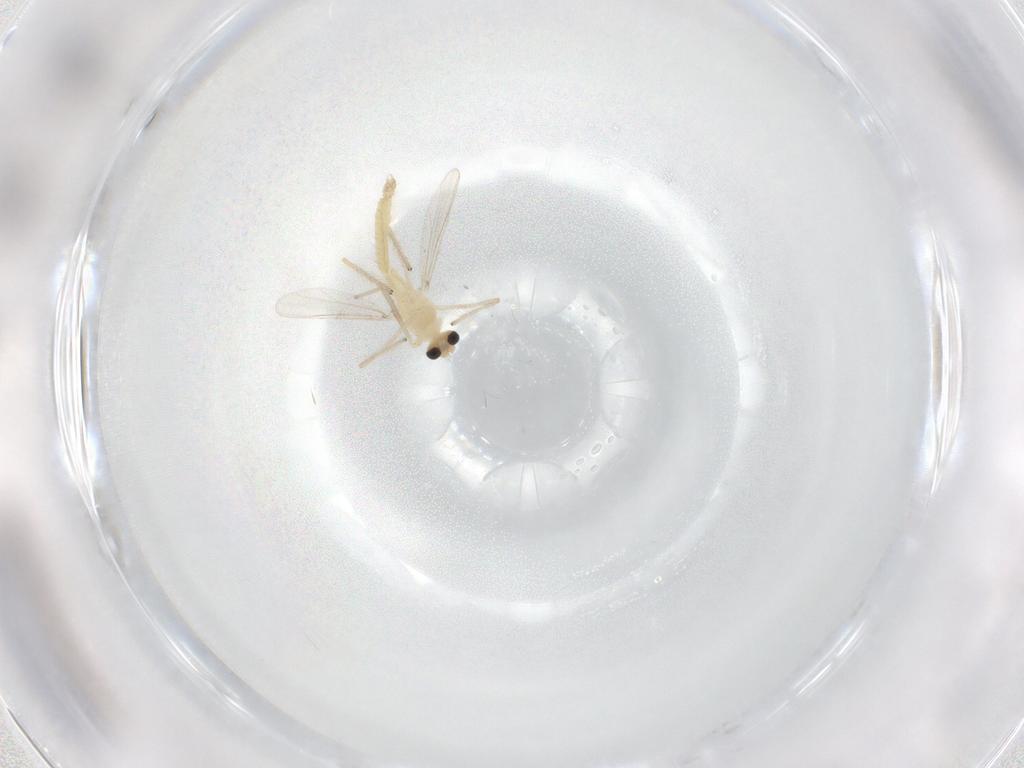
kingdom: Animalia
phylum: Arthropoda
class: Insecta
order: Diptera
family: Chironomidae
